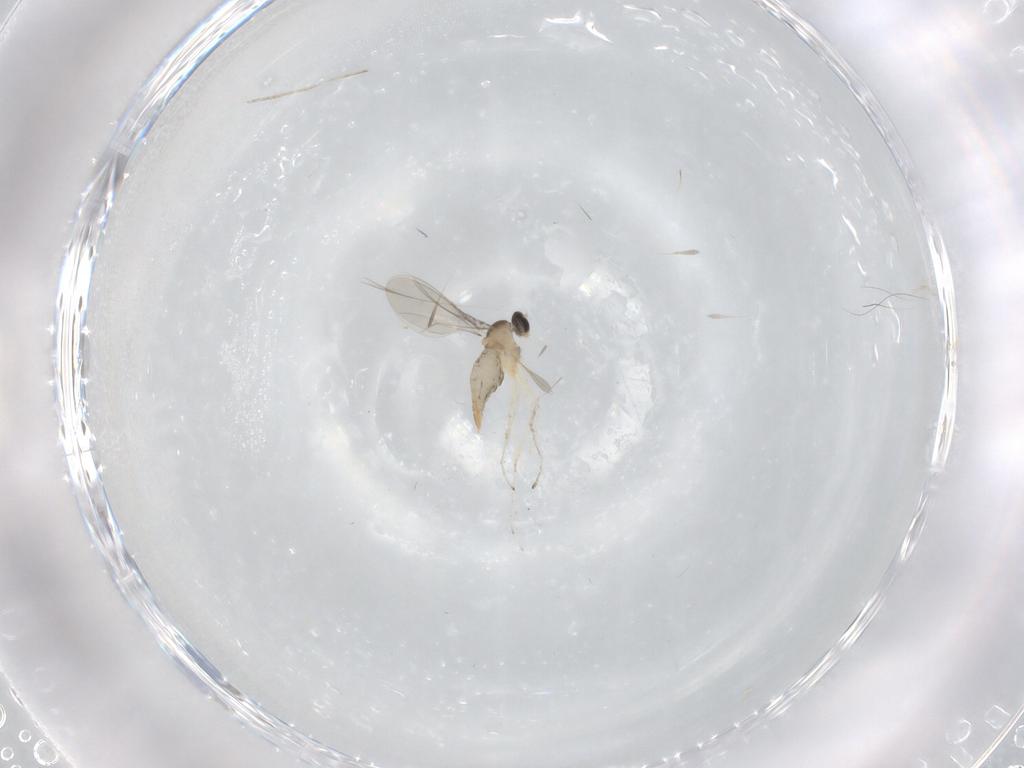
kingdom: Animalia
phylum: Arthropoda
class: Insecta
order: Diptera
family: Cecidomyiidae
